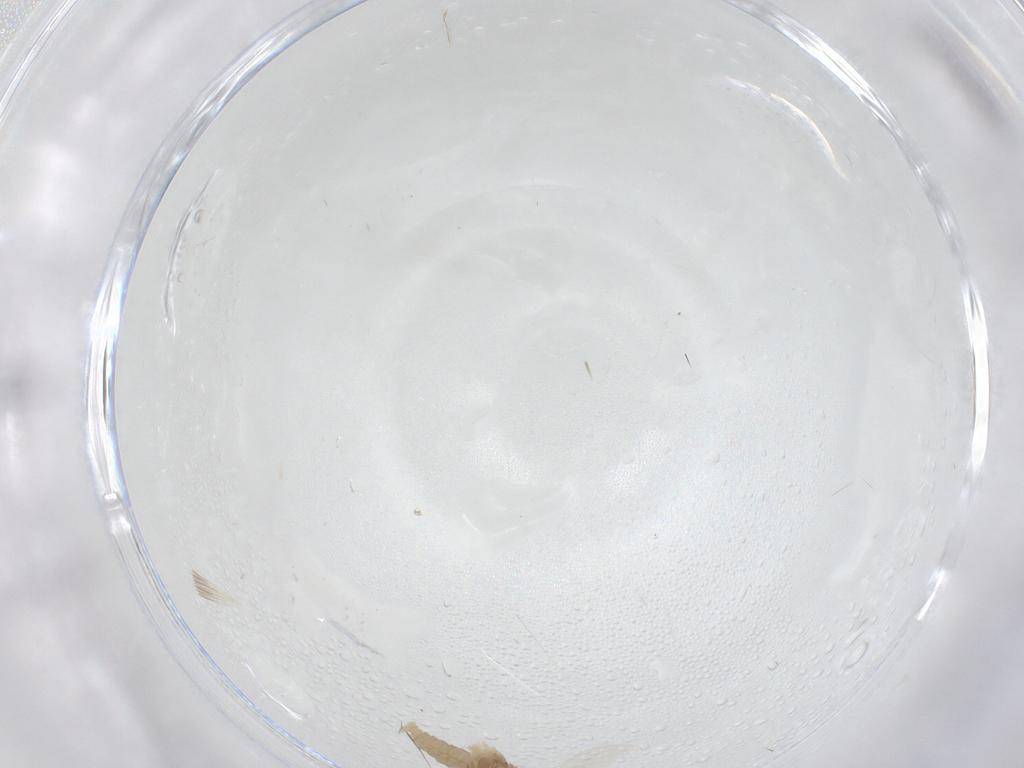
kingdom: Animalia
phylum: Arthropoda
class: Insecta
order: Diptera
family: Cecidomyiidae
